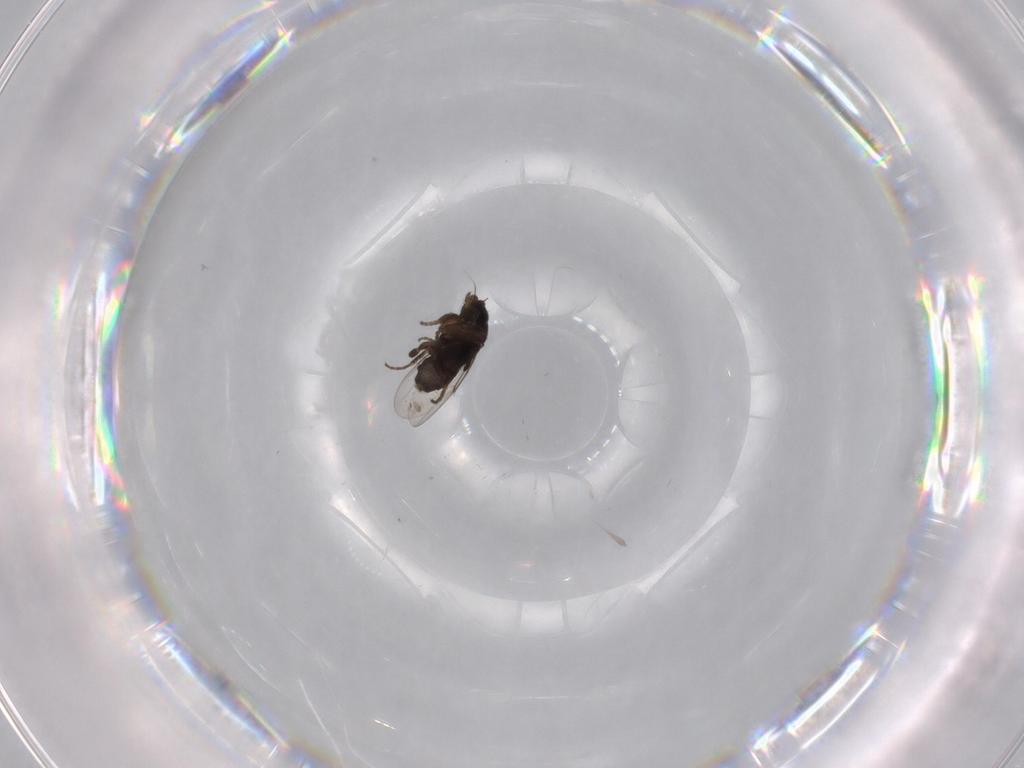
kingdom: Animalia
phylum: Arthropoda
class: Insecta
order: Diptera
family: Phoridae
